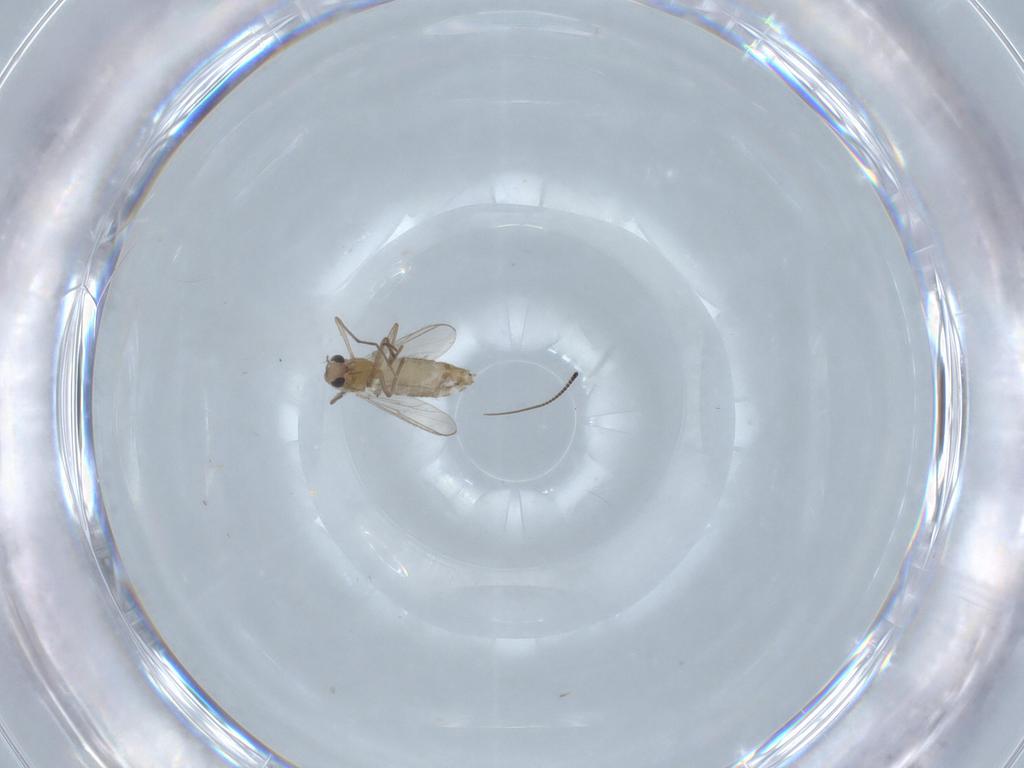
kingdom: Animalia
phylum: Arthropoda
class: Insecta
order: Diptera
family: Chironomidae
